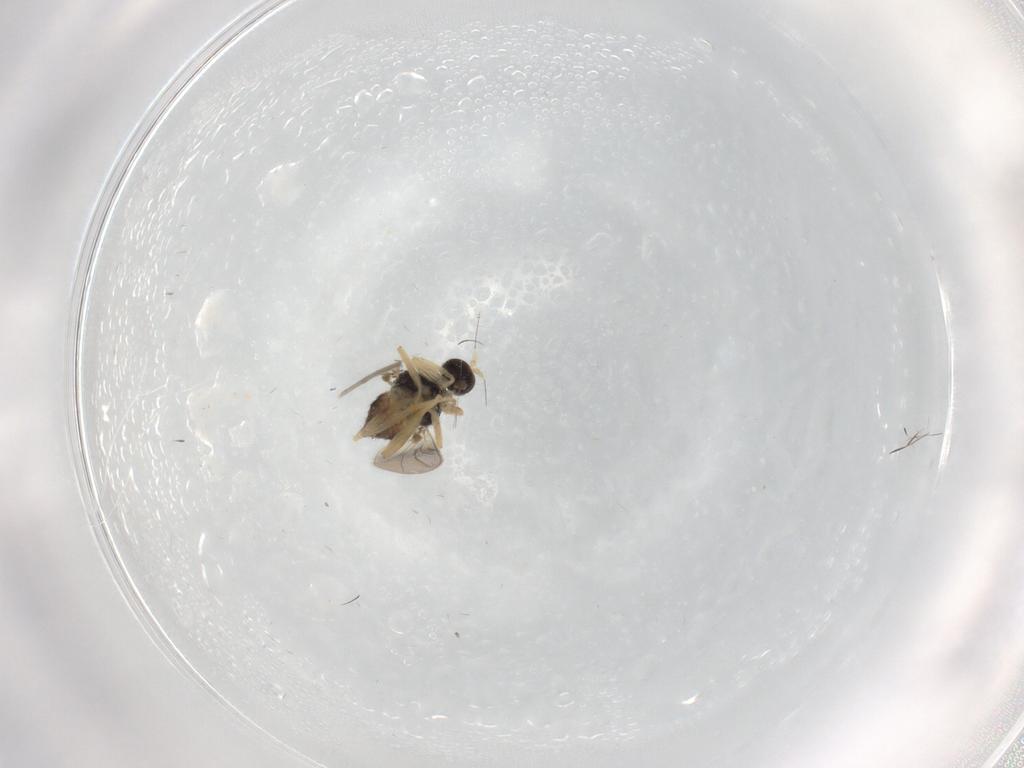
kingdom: Animalia
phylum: Arthropoda
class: Insecta
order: Diptera
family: Hybotidae
